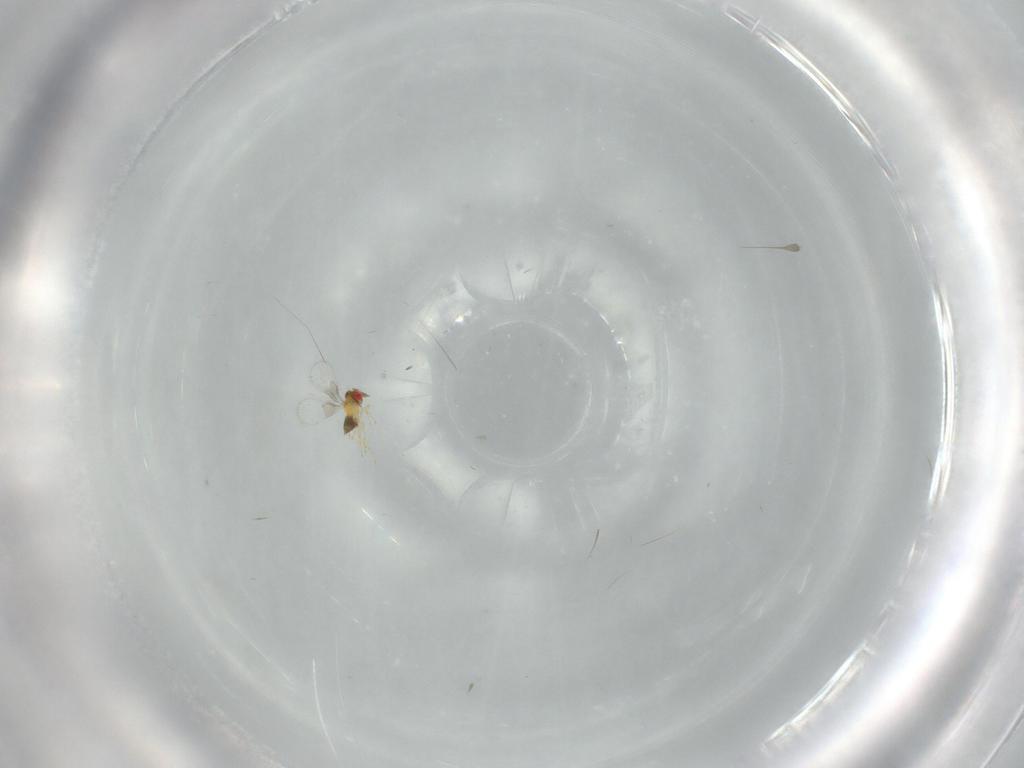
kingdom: Animalia
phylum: Arthropoda
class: Insecta
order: Hymenoptera
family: Trichogrammatidae
